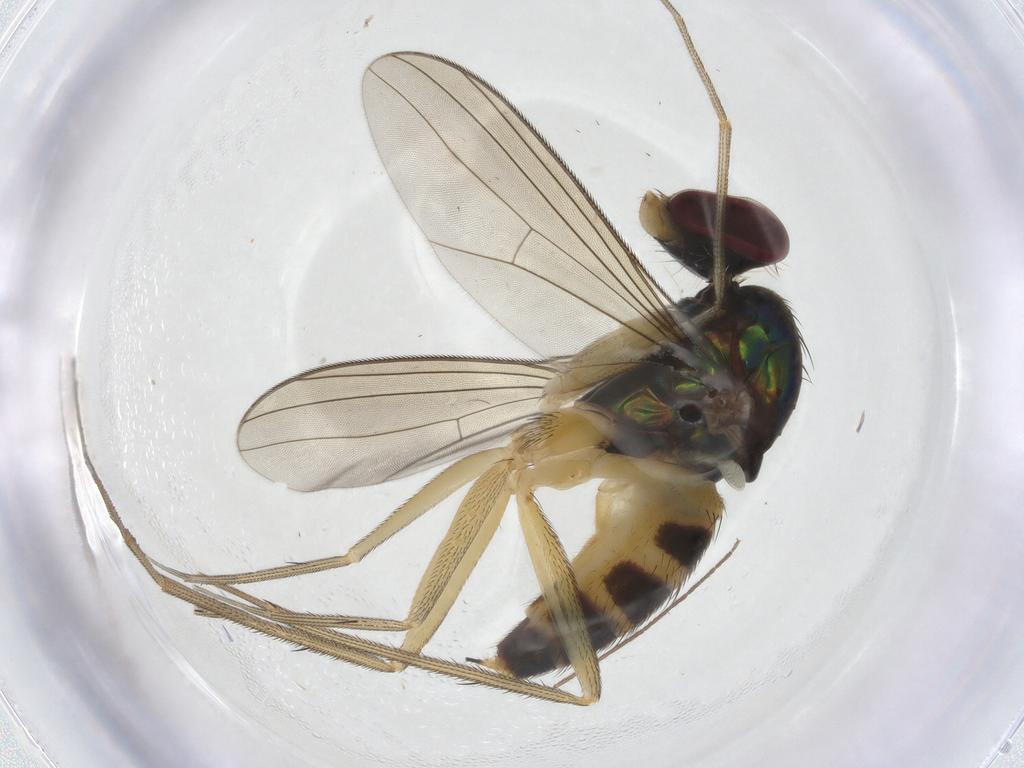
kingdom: Animalia
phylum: Arthropoda
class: Insecta
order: Diptera
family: Dolichopodidae
